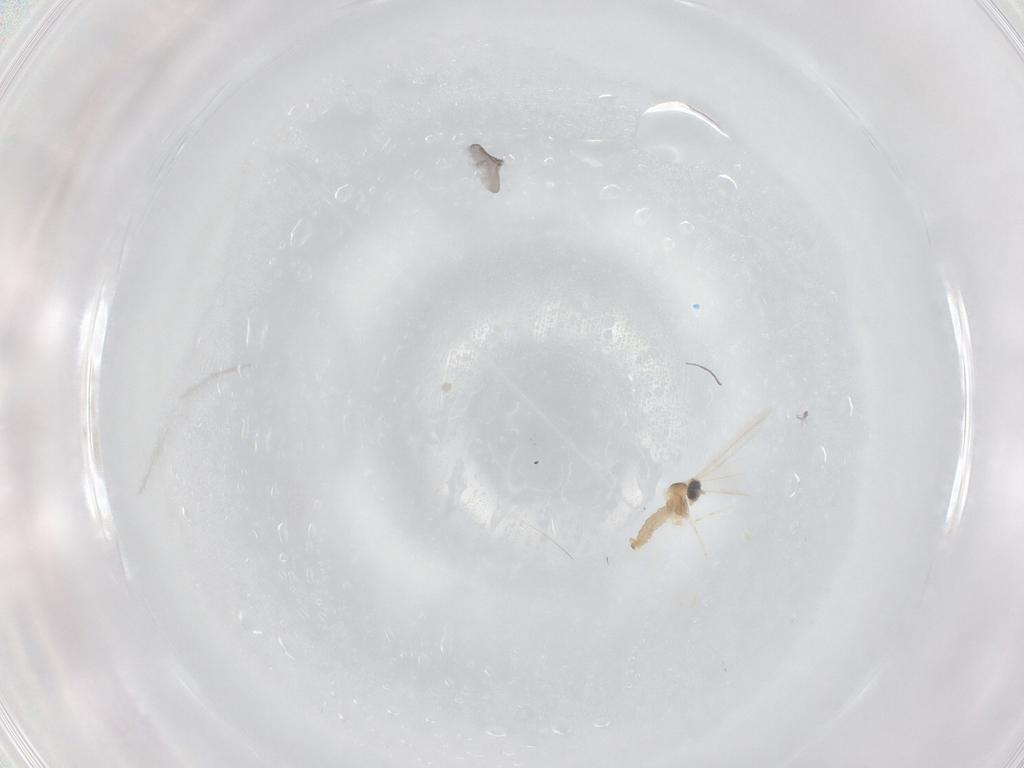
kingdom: Animalia
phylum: Arthropoda
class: Insecta
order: Diptera
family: Cecidomyiidae
